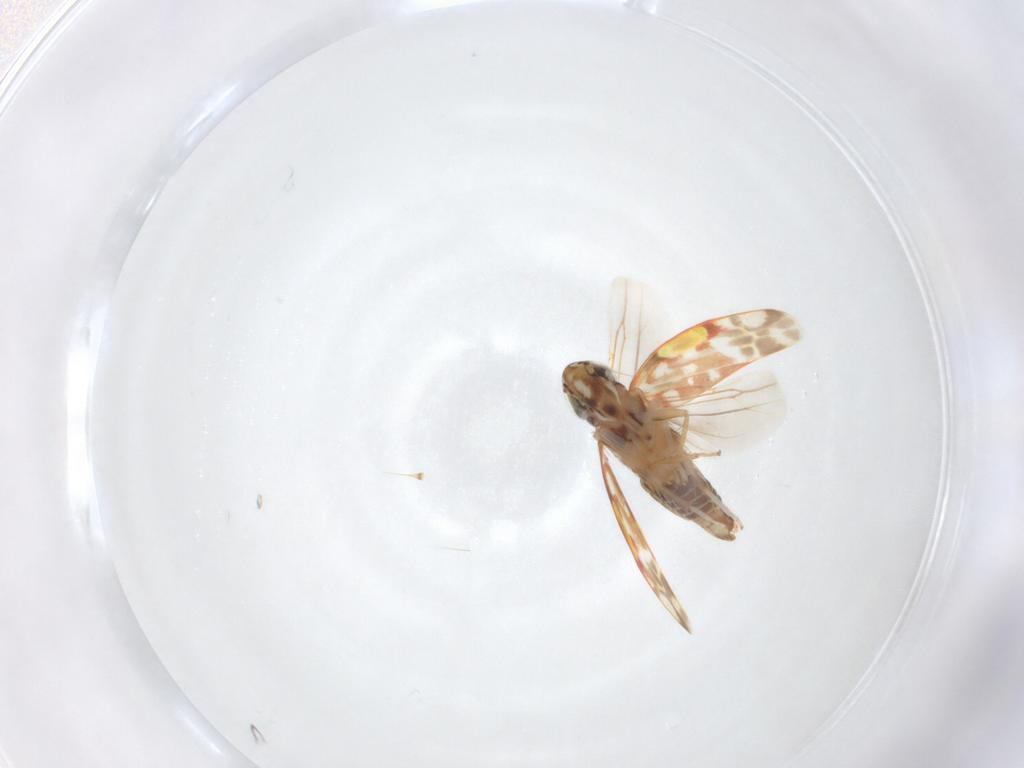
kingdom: Animalia
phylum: Arthropoda
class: Insecta
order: Hemiptera
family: Cicadellidae
